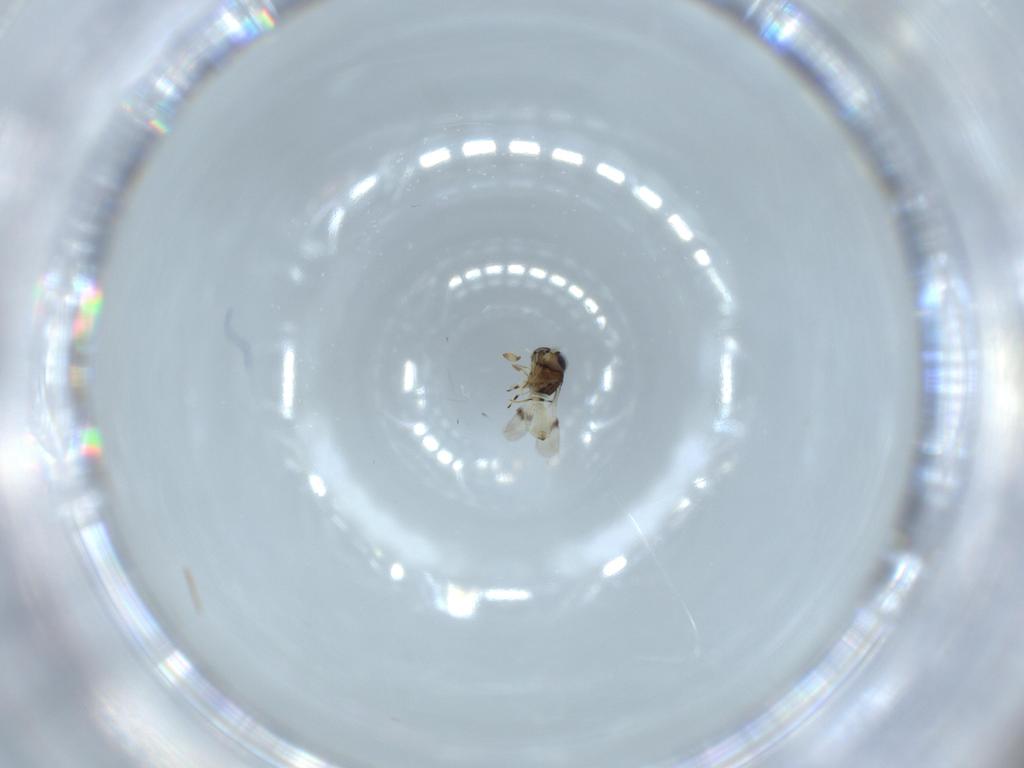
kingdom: Animalia
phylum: Arthropoda
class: Insecta
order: Hymenoptera
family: Scelionidae
